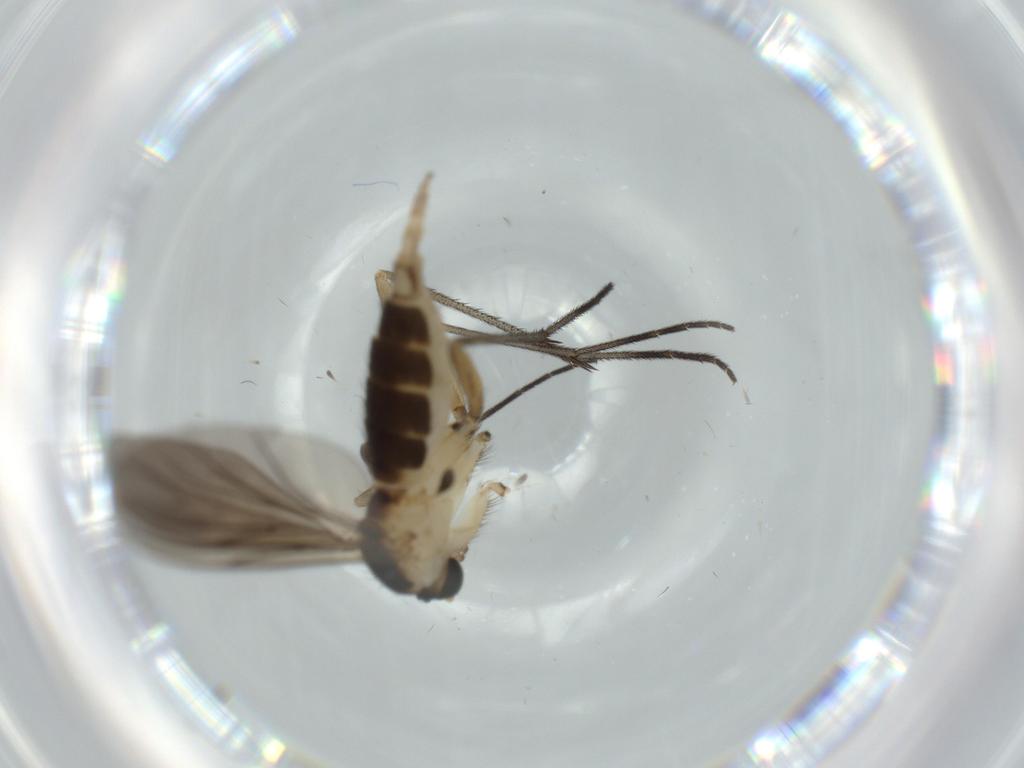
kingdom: Animalia
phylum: Arthropoda
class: Insecta
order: Diptera
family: Sciaridae
